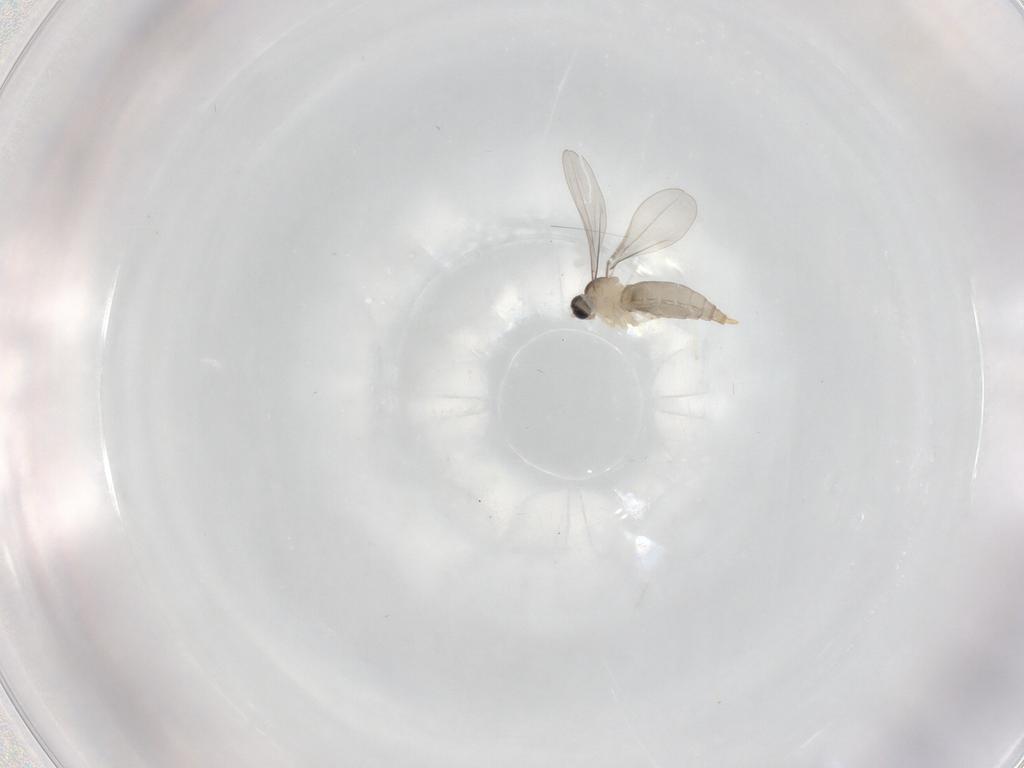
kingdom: Animalia
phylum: Arthropoda
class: Insecta
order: Diptera
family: Cecidomyiidae
